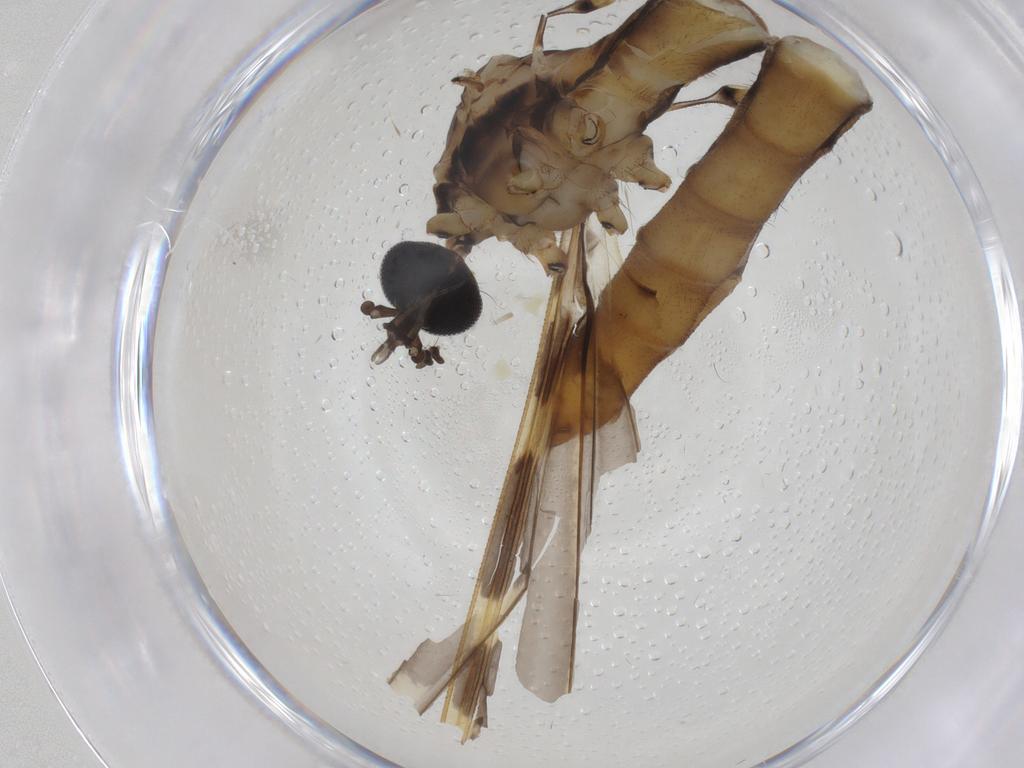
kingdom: Animalia
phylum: Arthropoda
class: Insecta
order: Diptera
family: Limoniidae
